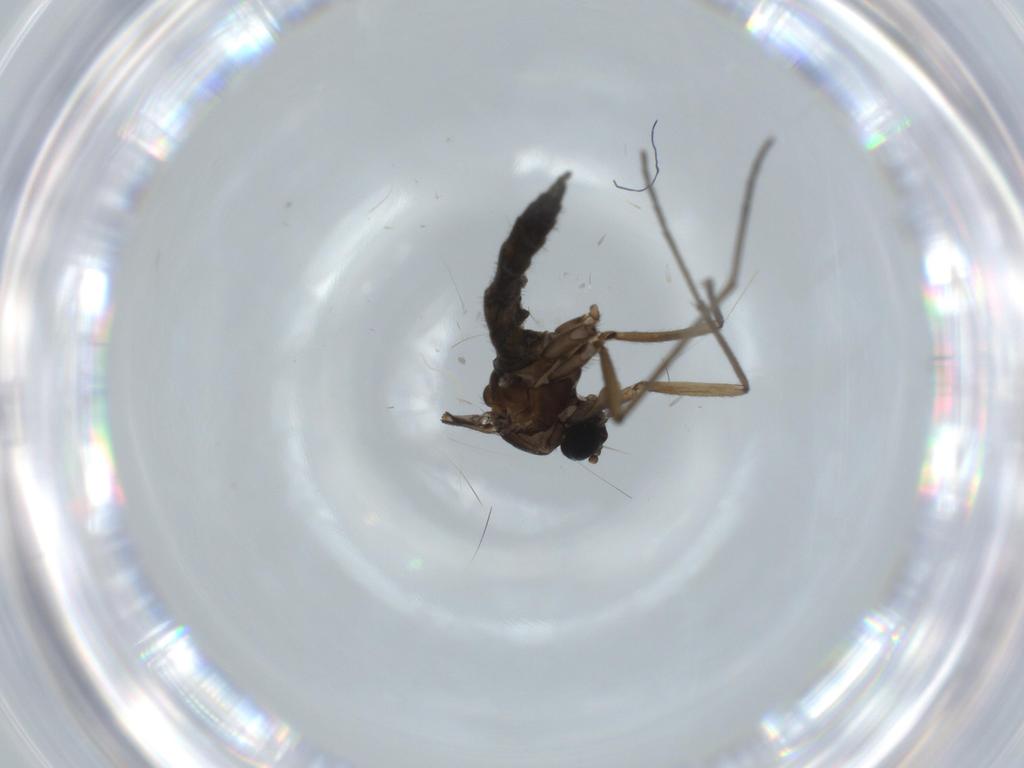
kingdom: Animalia
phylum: Arthropoda
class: Insecta
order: Diptera
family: Sciaridae
